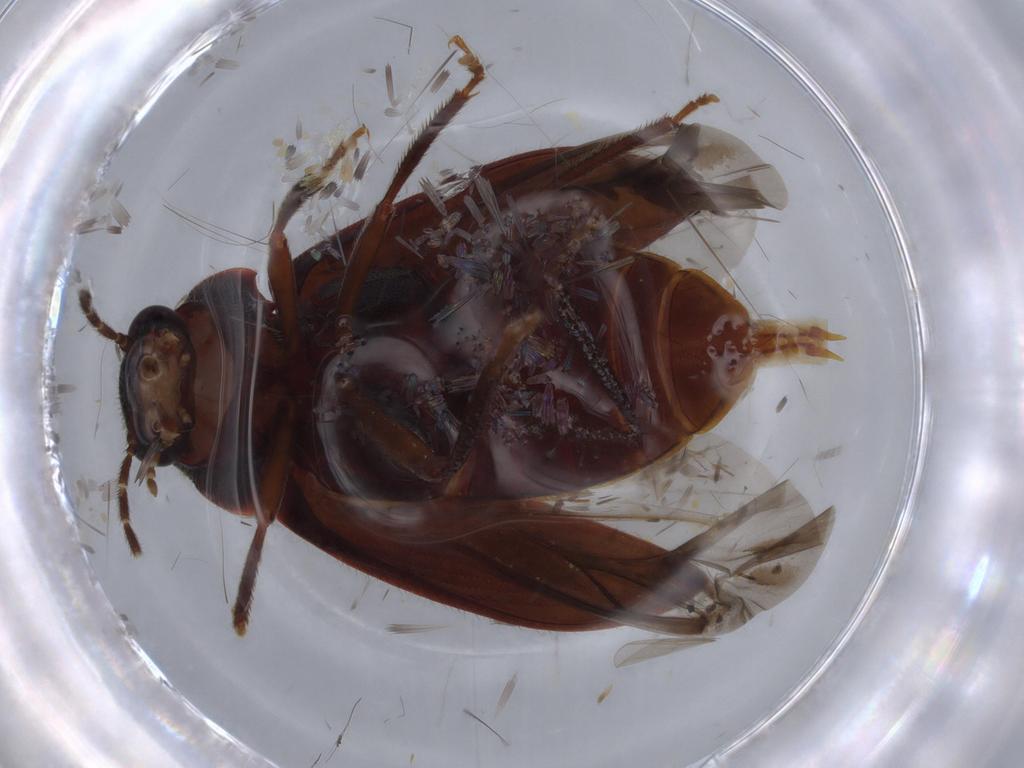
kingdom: Animalia
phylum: Arthropoda
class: Insecta
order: Coleoptera
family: Ptilodactylidae
